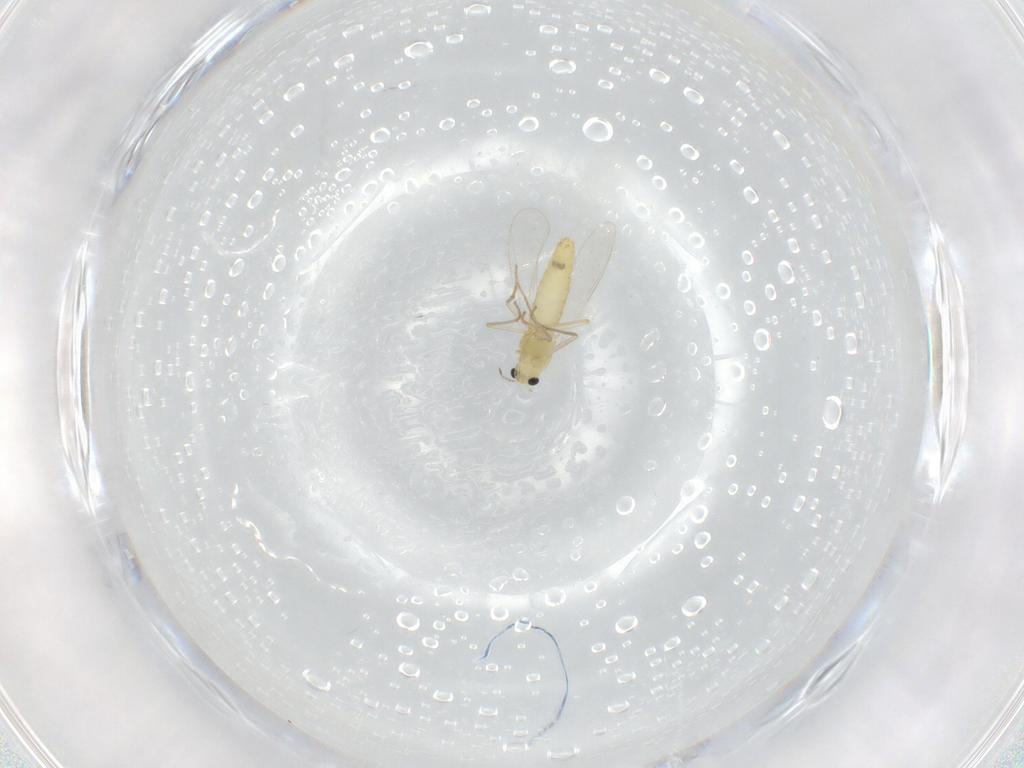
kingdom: Animalia
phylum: Arthropoda
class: Insecta
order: Diptera
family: Chironomidae
